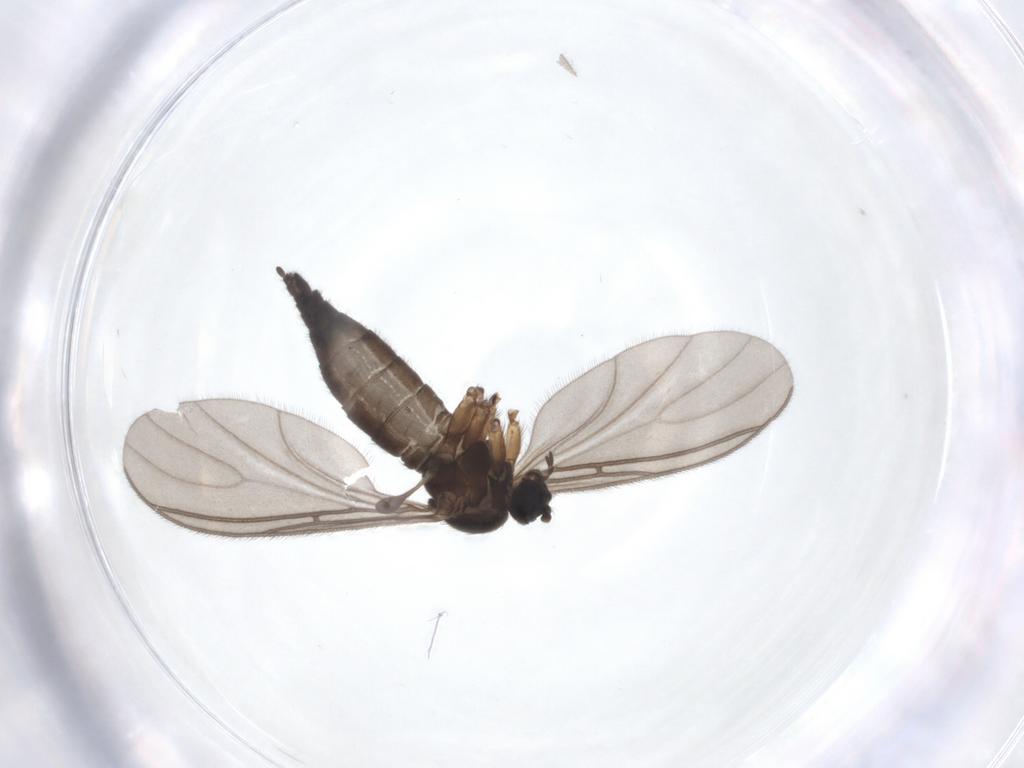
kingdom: Animalia
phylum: Arthropoda
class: Insecta
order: Diptera
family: Sciaridae
